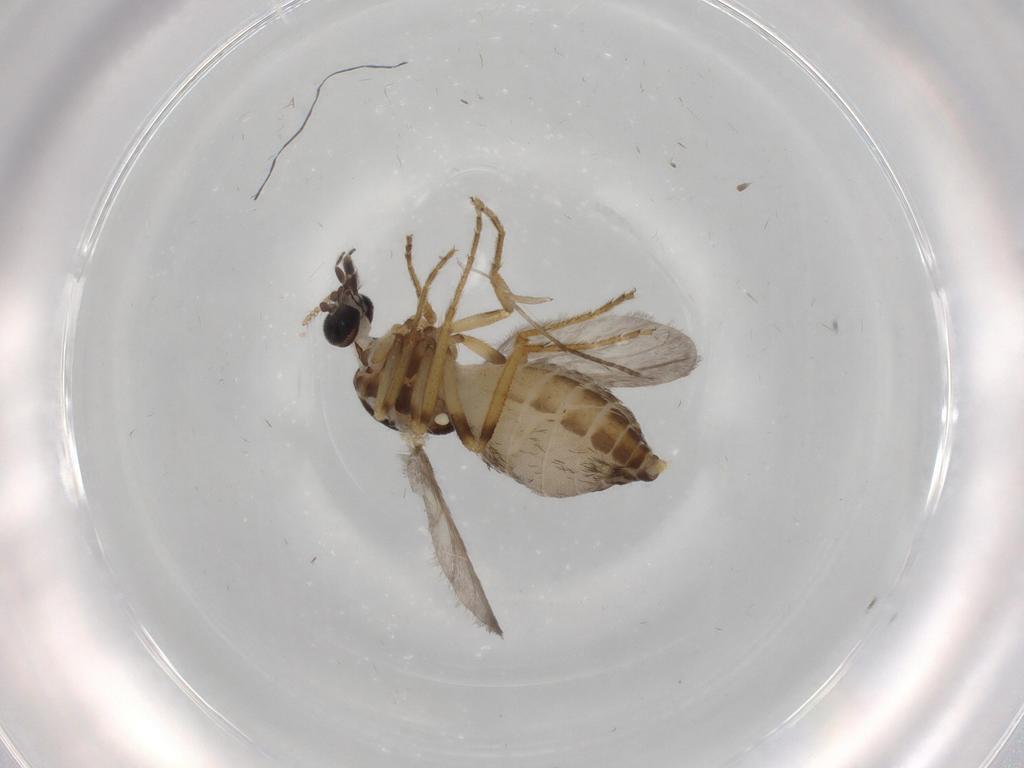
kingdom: Animalia
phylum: Arthropoda
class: Insecta
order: Diptera
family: Ceratopogonidae
